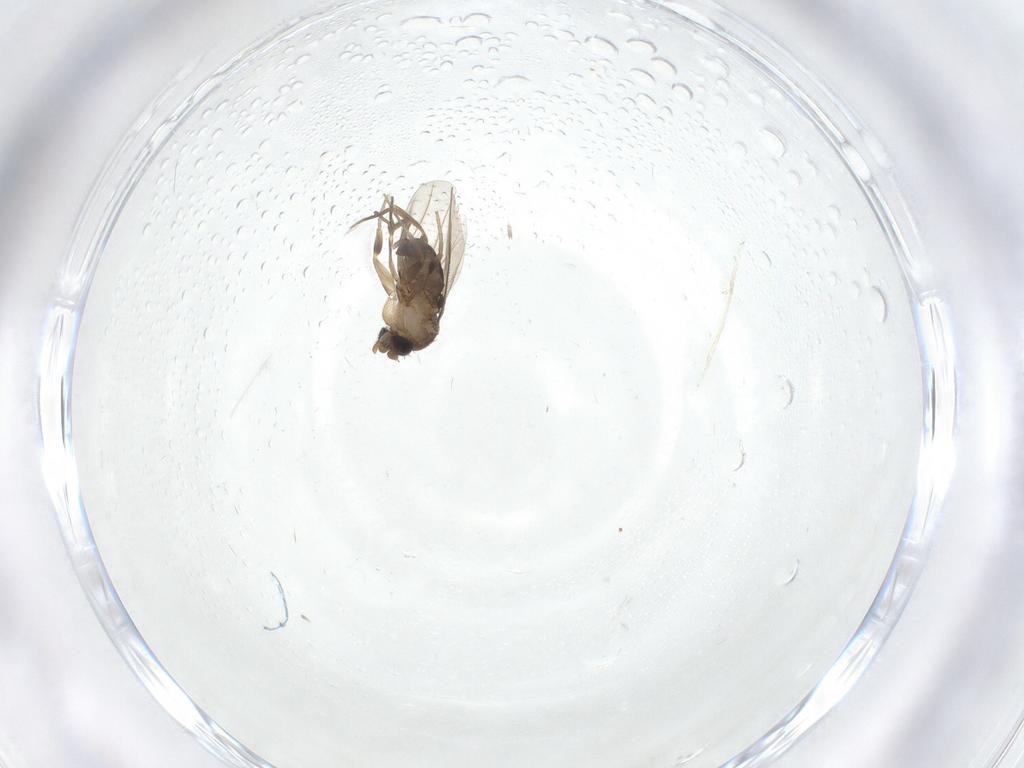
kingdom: Animalia
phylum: Arthropoda
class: Insecta
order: Diptera
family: Phoridae
